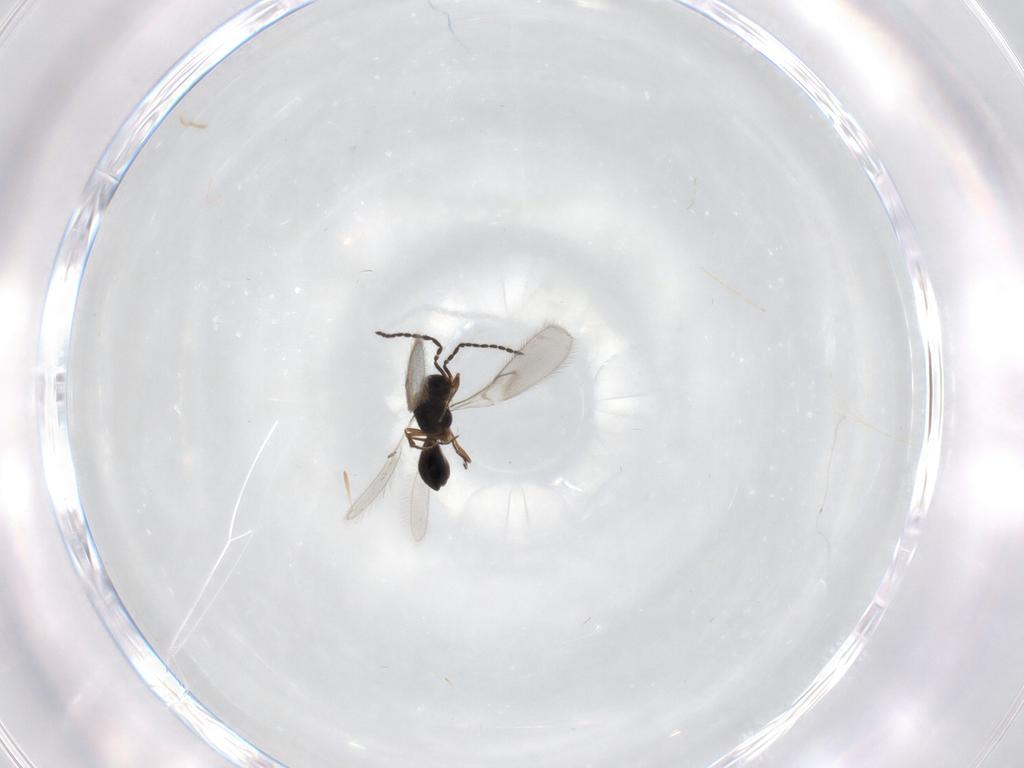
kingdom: Animalia
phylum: Arthropoda
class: Insecta
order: Hymenoptera
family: Scelionidae
